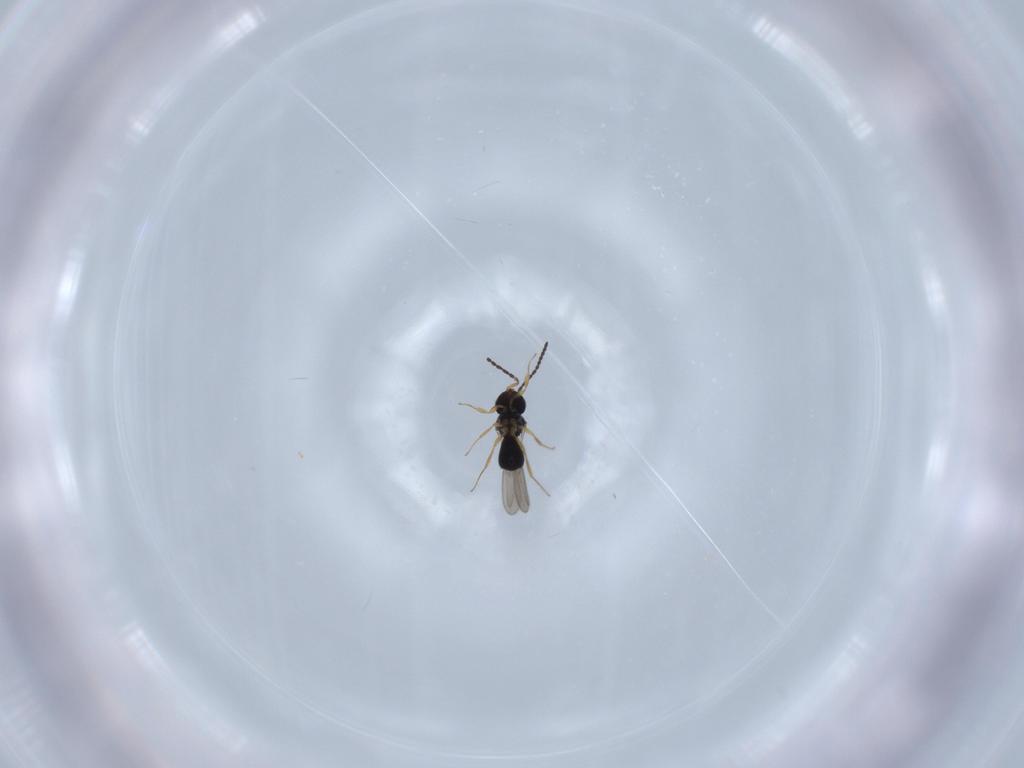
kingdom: Animalia
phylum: Arthropoda
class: Insecta
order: Hymenoptera
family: Scelionidae
